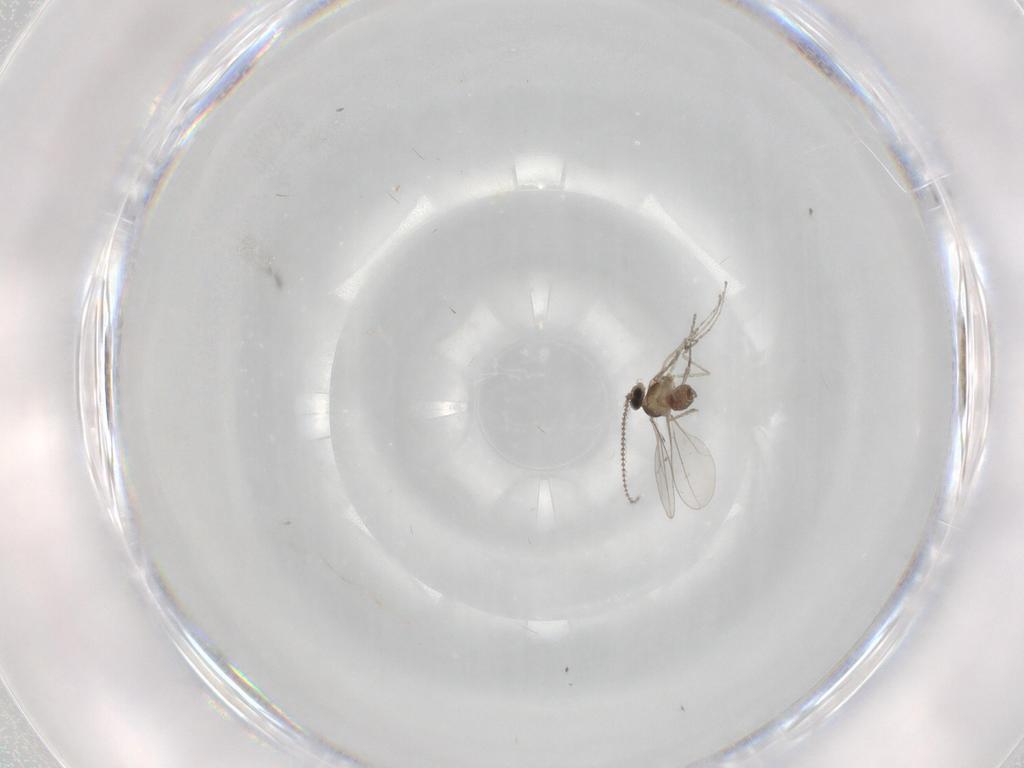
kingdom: Animalia
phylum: Arthropoda
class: Insecta
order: Diptera
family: Cecidomyiidae
